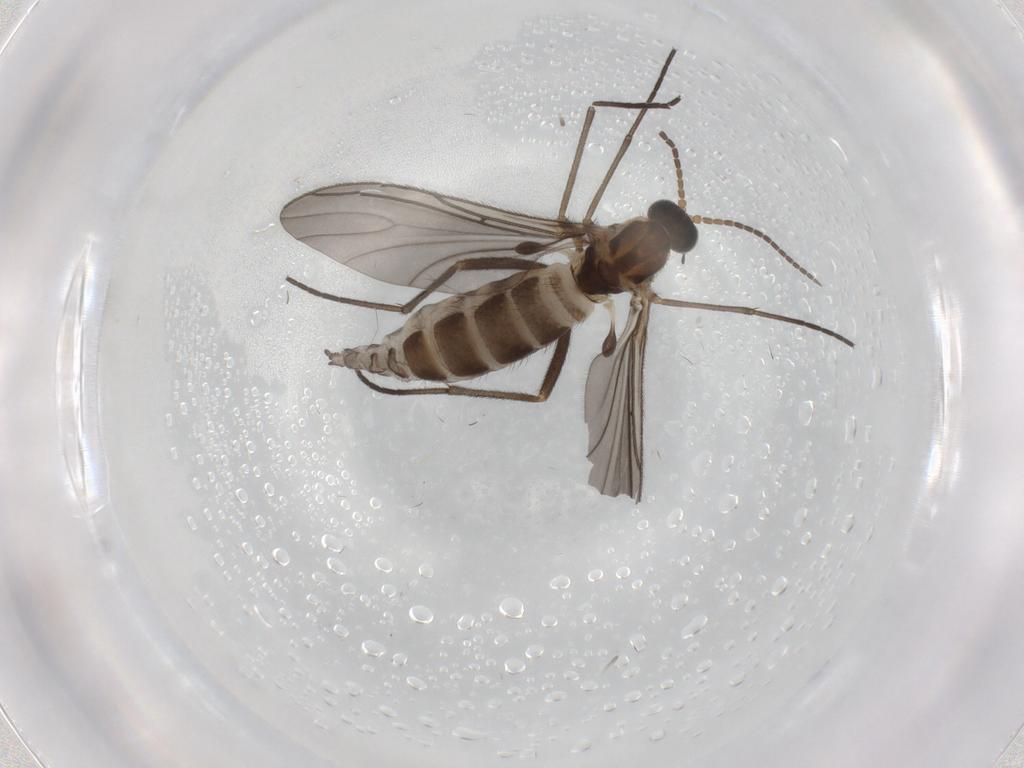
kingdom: Animalia
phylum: Arthropoda
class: Insecta
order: Diptera
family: Sciaridae
